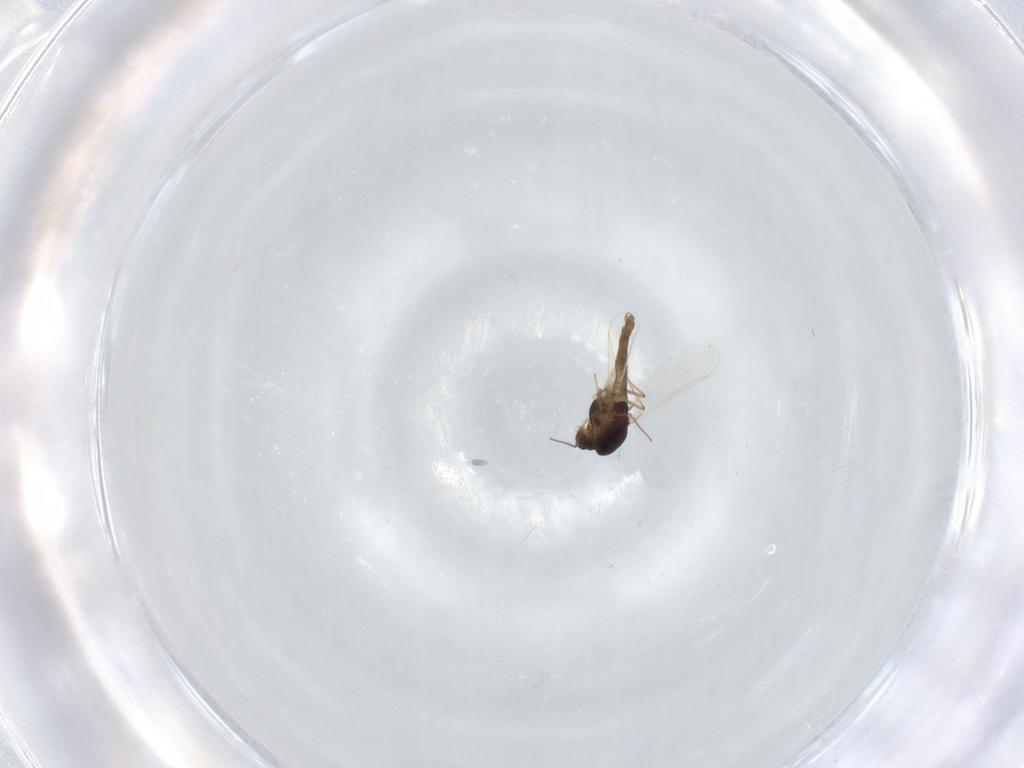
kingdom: Animalia
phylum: Arthropoda
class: Insecta
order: Diptera
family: Chironomidae
